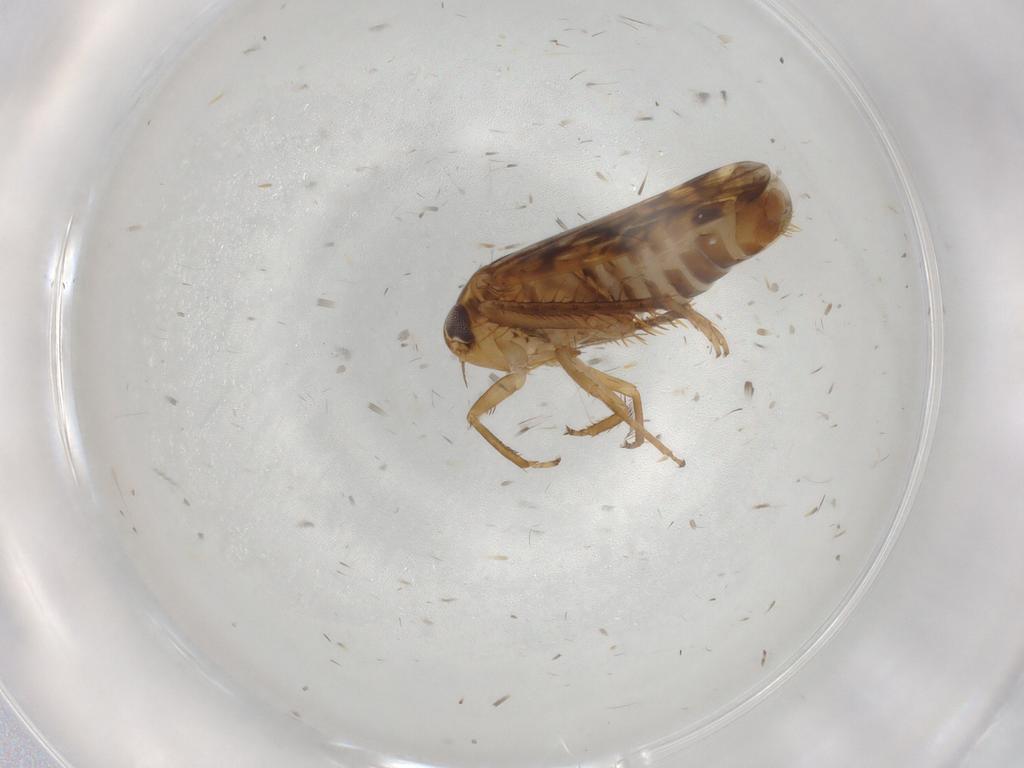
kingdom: Animalia
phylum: Arthropoda
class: Insecta
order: Hemiptera
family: Cicadellidae
